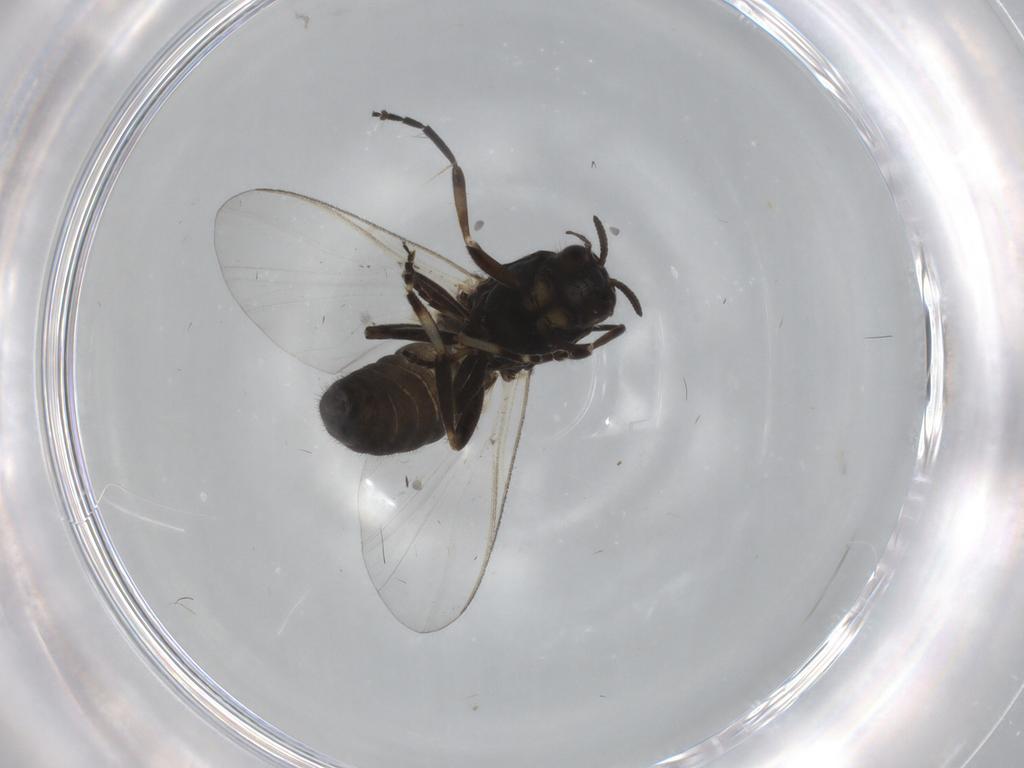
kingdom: Animalia
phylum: Arthropoda
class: Insecta
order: Diptera
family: Simuliidae
